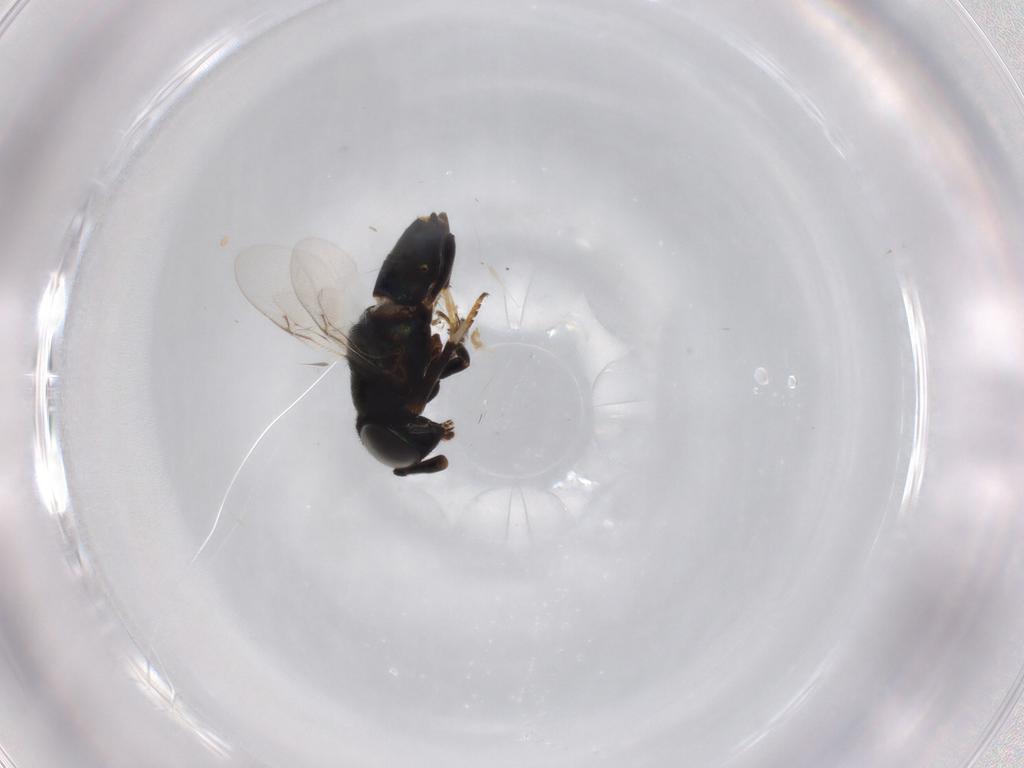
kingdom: Animalia
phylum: Arthropoda
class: Insecta
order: Hymenoptera
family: Encyrtidae
